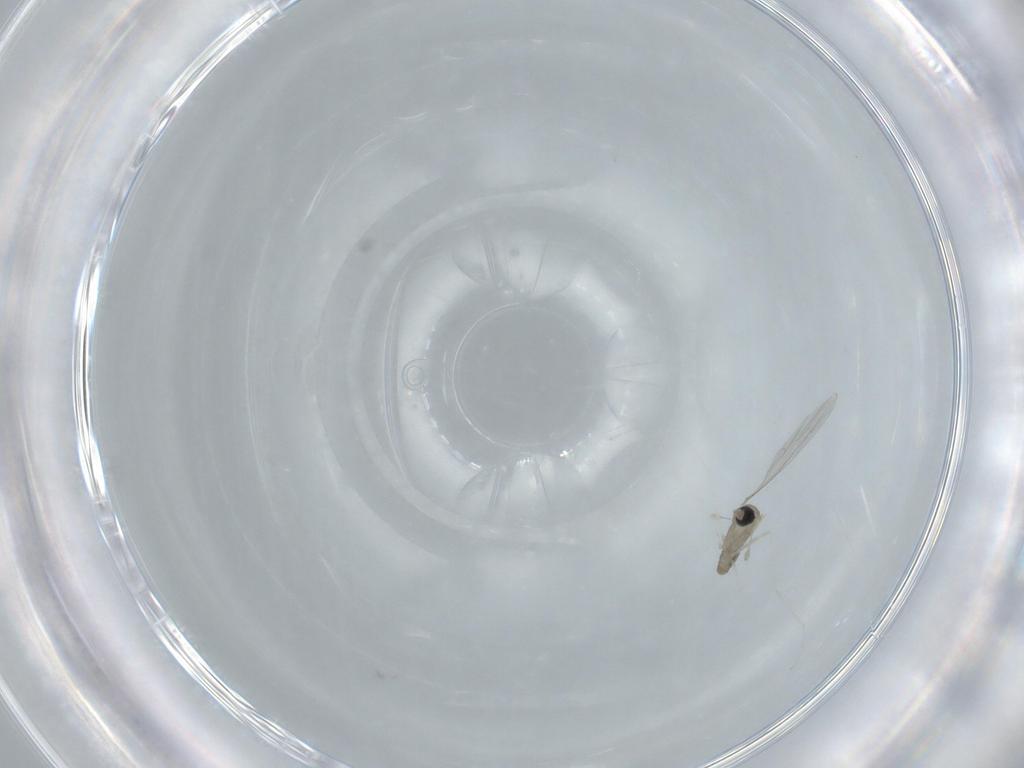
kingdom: Animalia
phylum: Arthropoda
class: Insecta
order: Diptera
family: Cecidomyiidae
